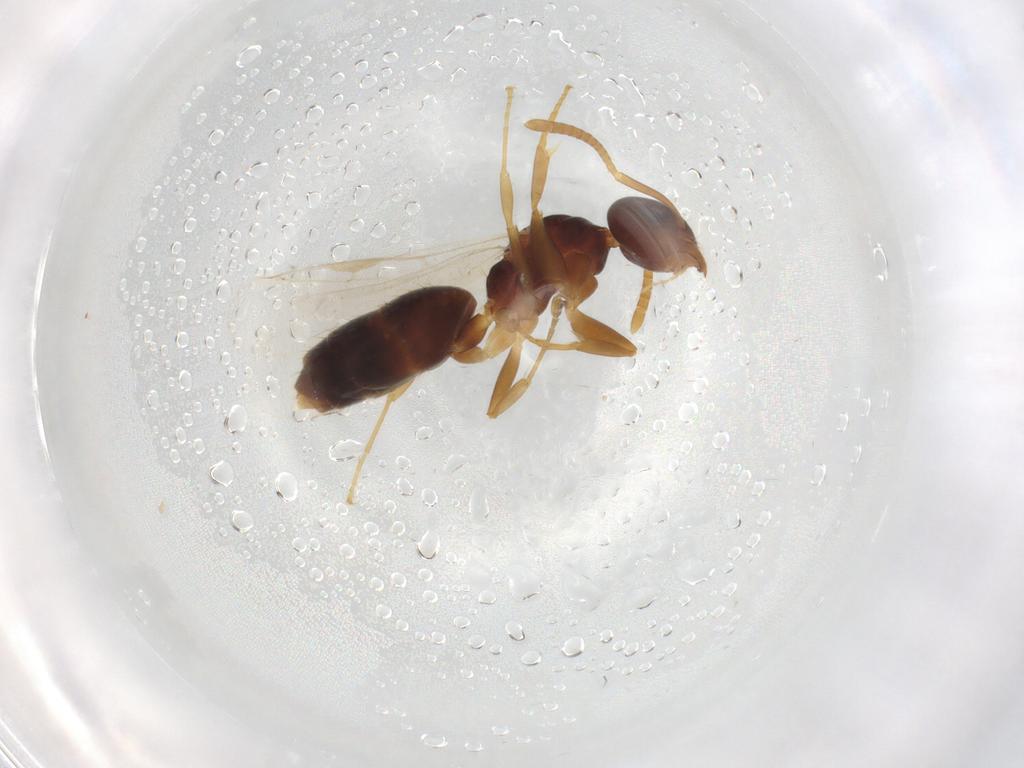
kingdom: Animalia
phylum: Arthropoda
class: Insecta
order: Hymenoptera
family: Formicidae
